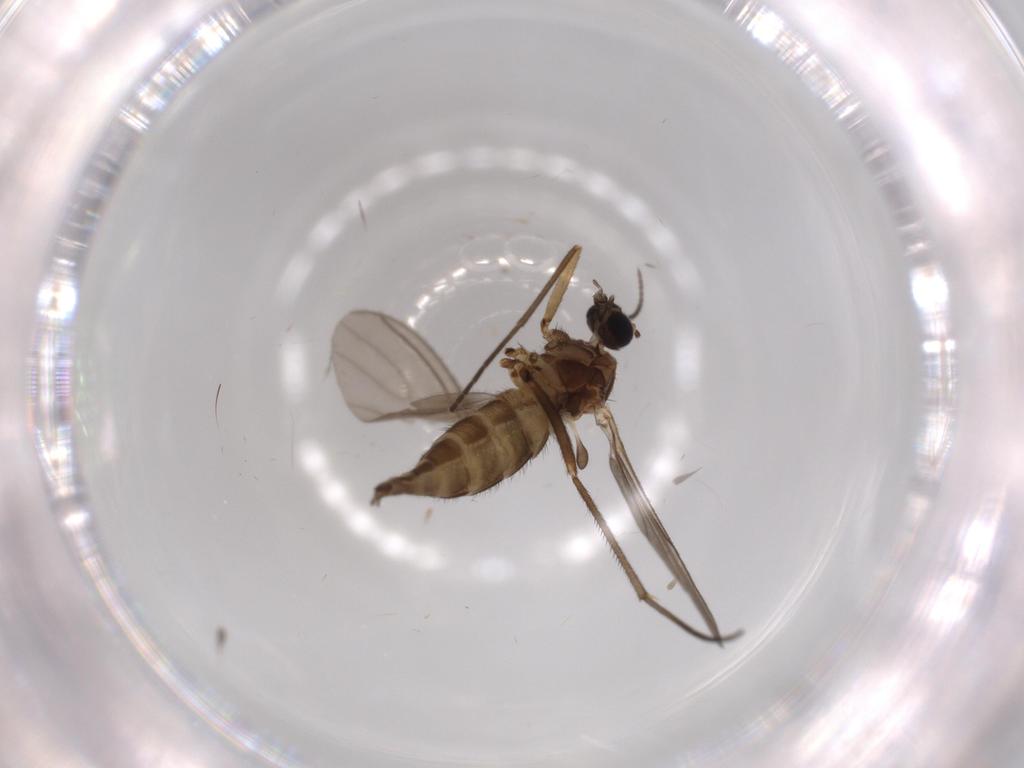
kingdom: Animalia
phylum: Arthropoda
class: Insecta
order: Diptera
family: Sciaridae
